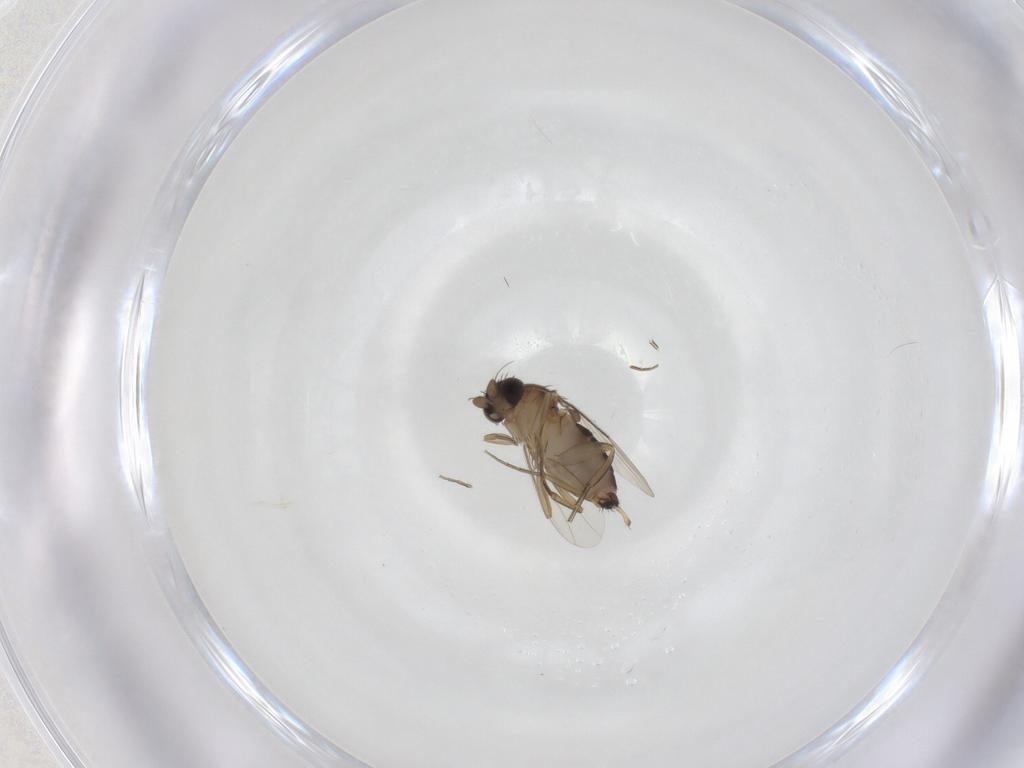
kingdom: Animalia
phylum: Arthropoda
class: Insecta
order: Diptera
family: Phoridae
